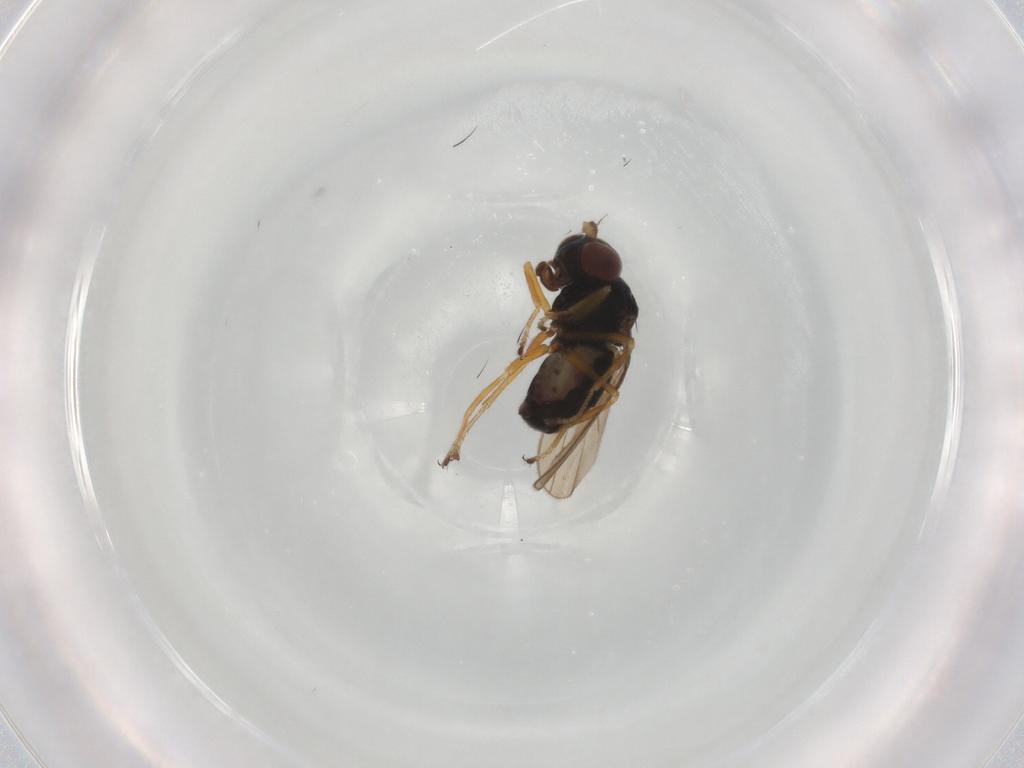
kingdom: Animalia
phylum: Arthropoda
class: Insecta
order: Diptera
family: Ephydridae
